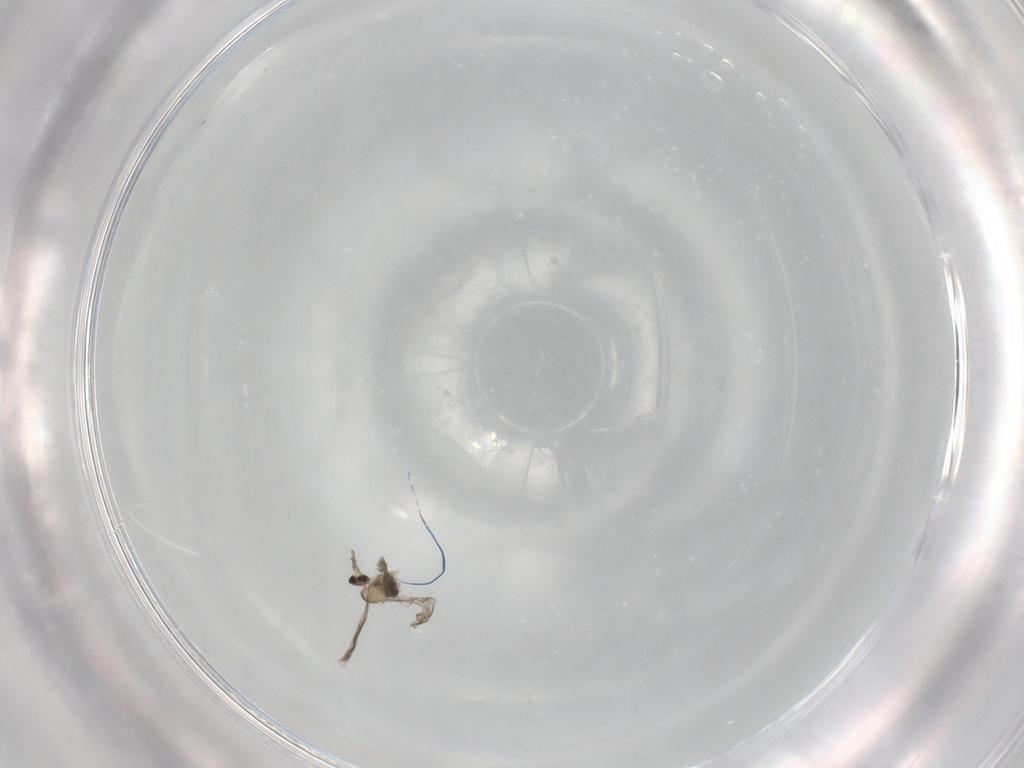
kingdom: Animalia
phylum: Arthropoda
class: Insecta
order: Diptera
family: Cecidomyiidae
